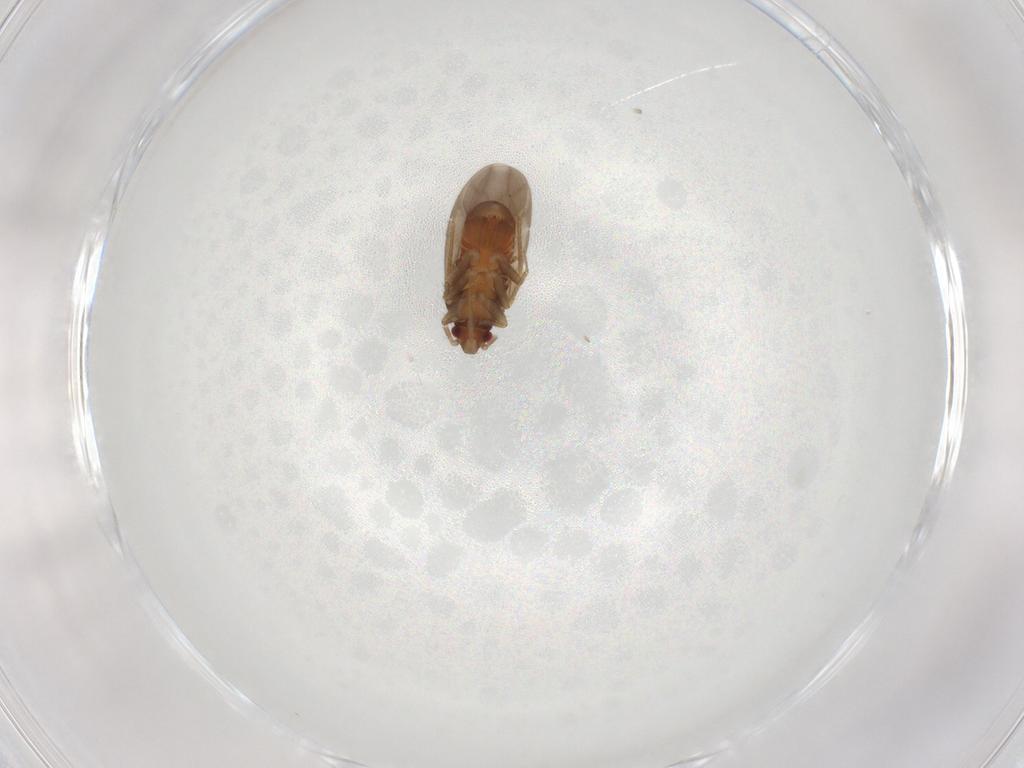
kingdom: Animalia
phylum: Arthropoda
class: Insecta
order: Hemiptera
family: Ceratocombidae
